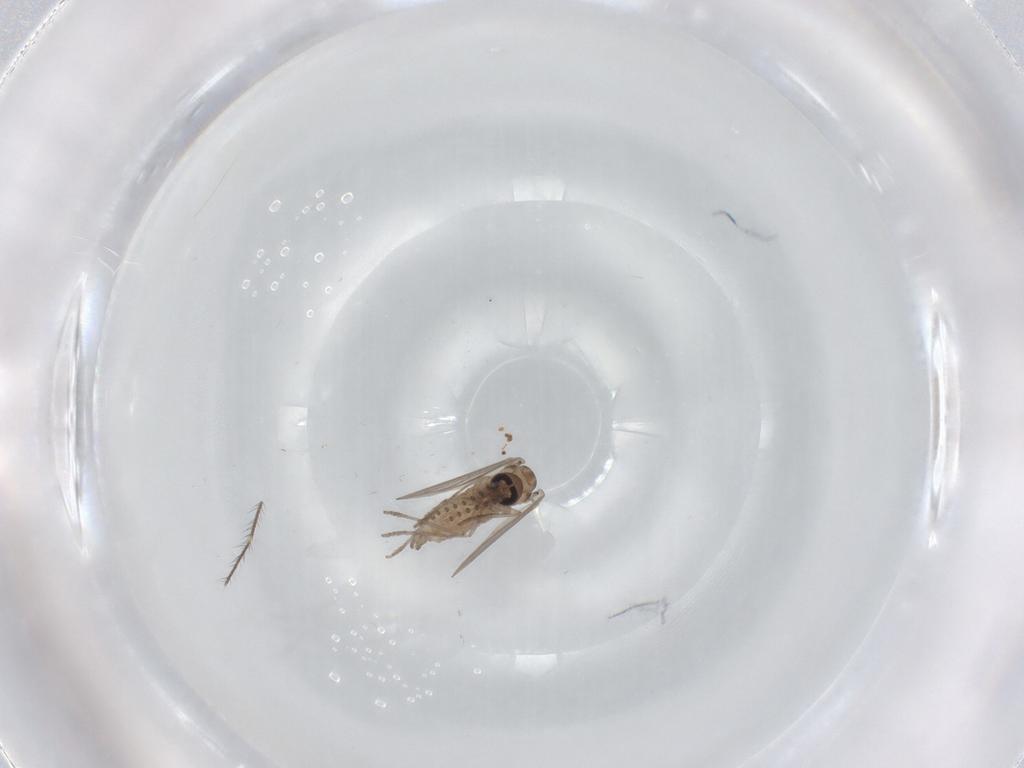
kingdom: Animalia
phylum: Arthropoda
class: Insecta
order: Diptera
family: Psychodidae
